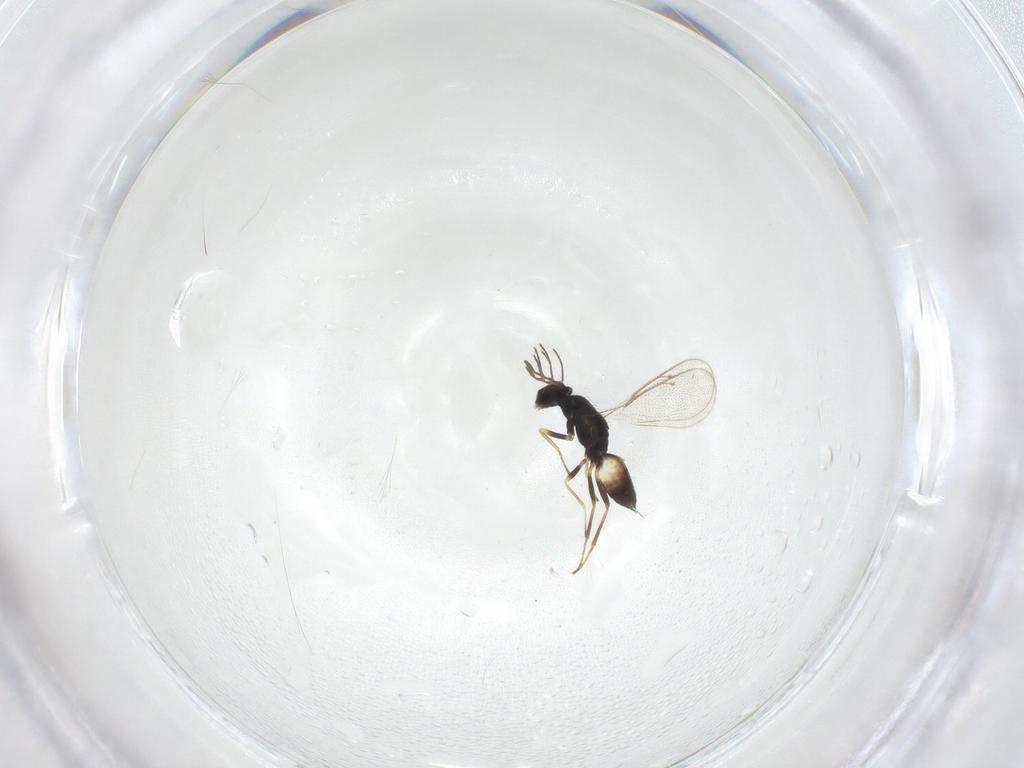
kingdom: Animalia
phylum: Arthropoda
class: Insecta
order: Hymenoptera
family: Eulophidae
